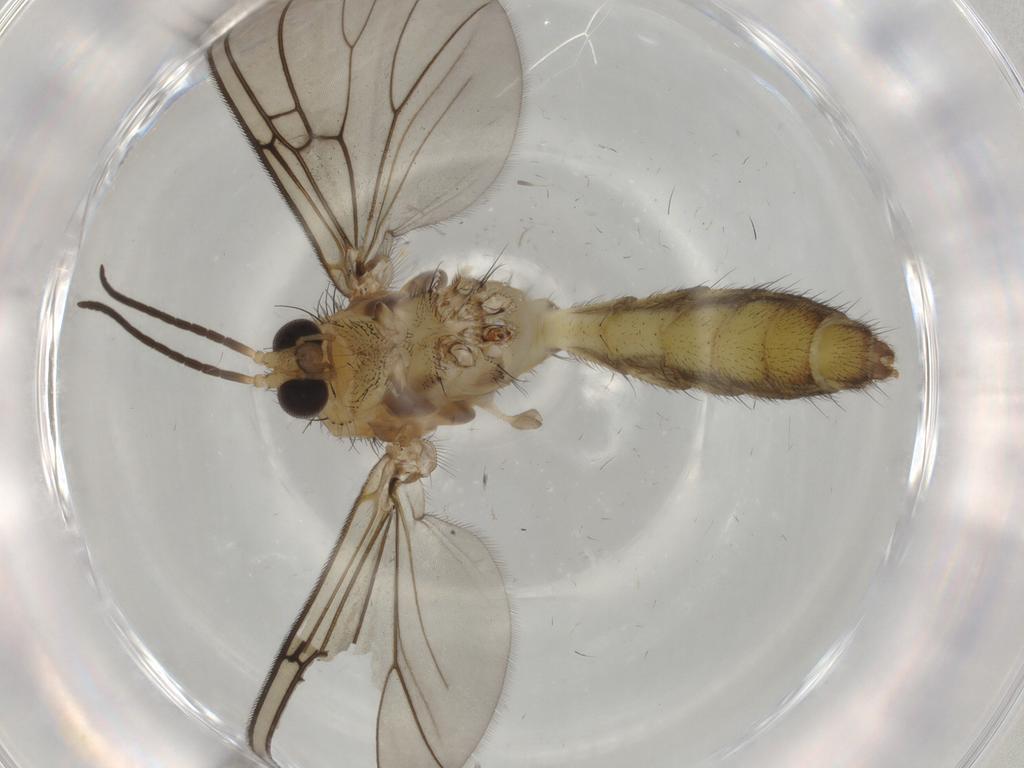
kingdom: Animalia
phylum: Arthropoda
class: Insecta
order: Diptera
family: Mycetophilidae
